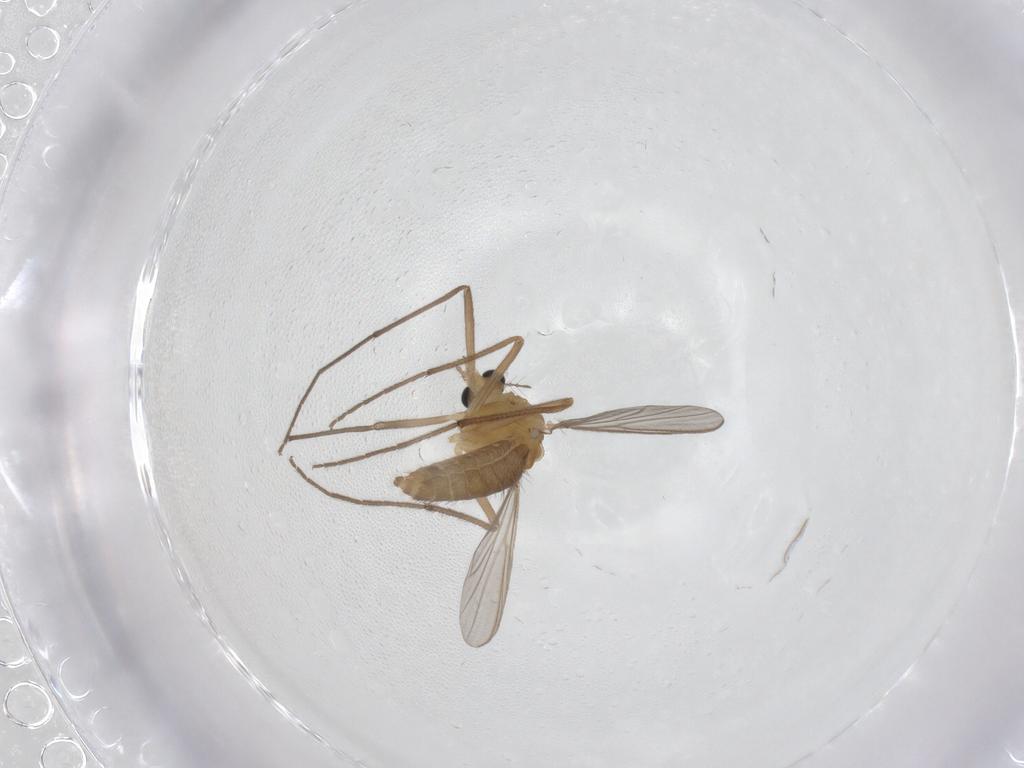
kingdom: Animalia
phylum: Arthropoda
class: Insecta
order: Diptera
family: Chironomidae
